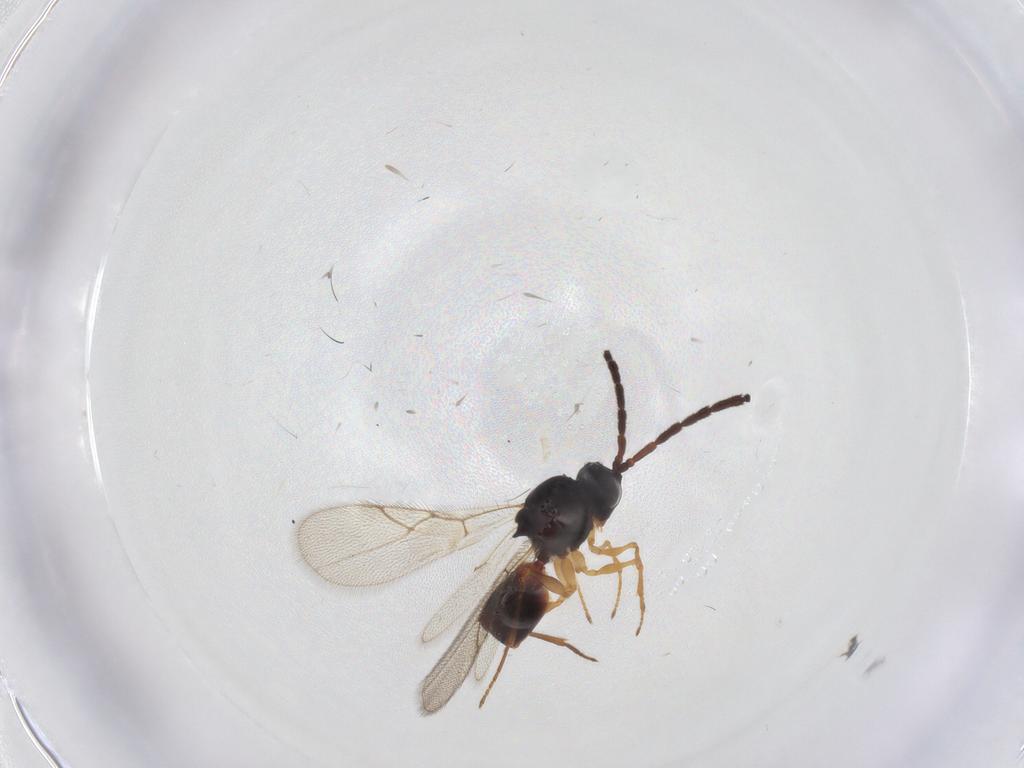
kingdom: Animalia
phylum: Arthropoda
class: Insecta
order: Hymenoptera
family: Figitidae
